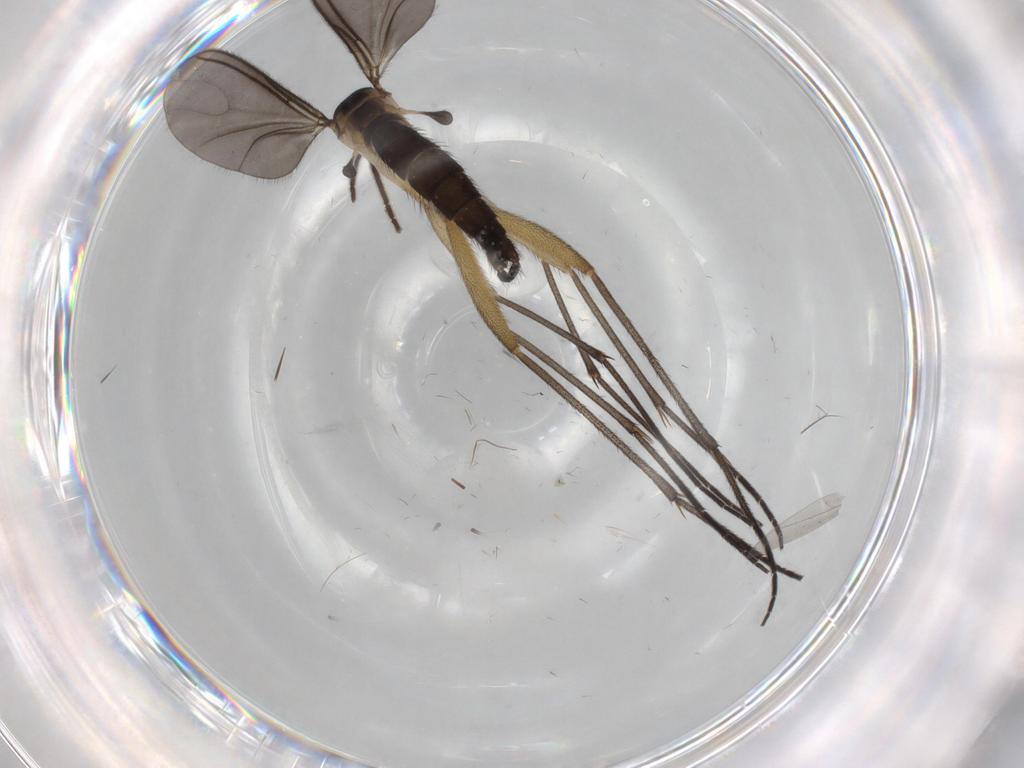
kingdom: Animalia
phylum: Arthropoda
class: Insecta
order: Diptera
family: Sciaridae
